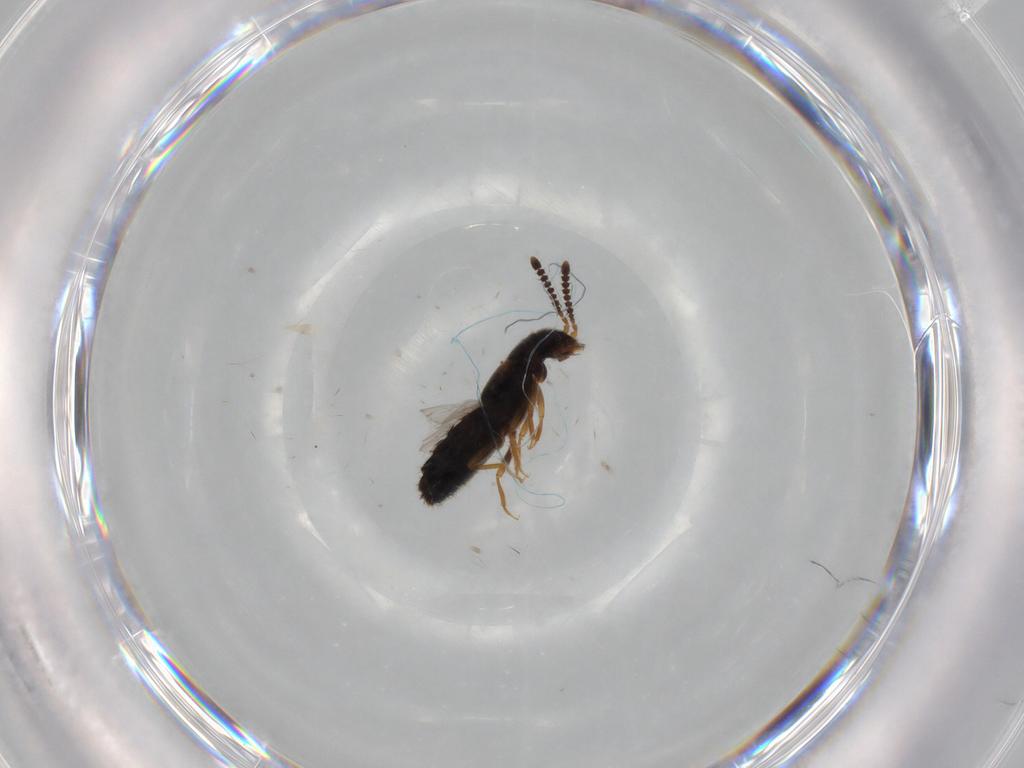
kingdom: Animalia
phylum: Arthropoda
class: Insecta
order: Coleoptera
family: Staphylinidae
